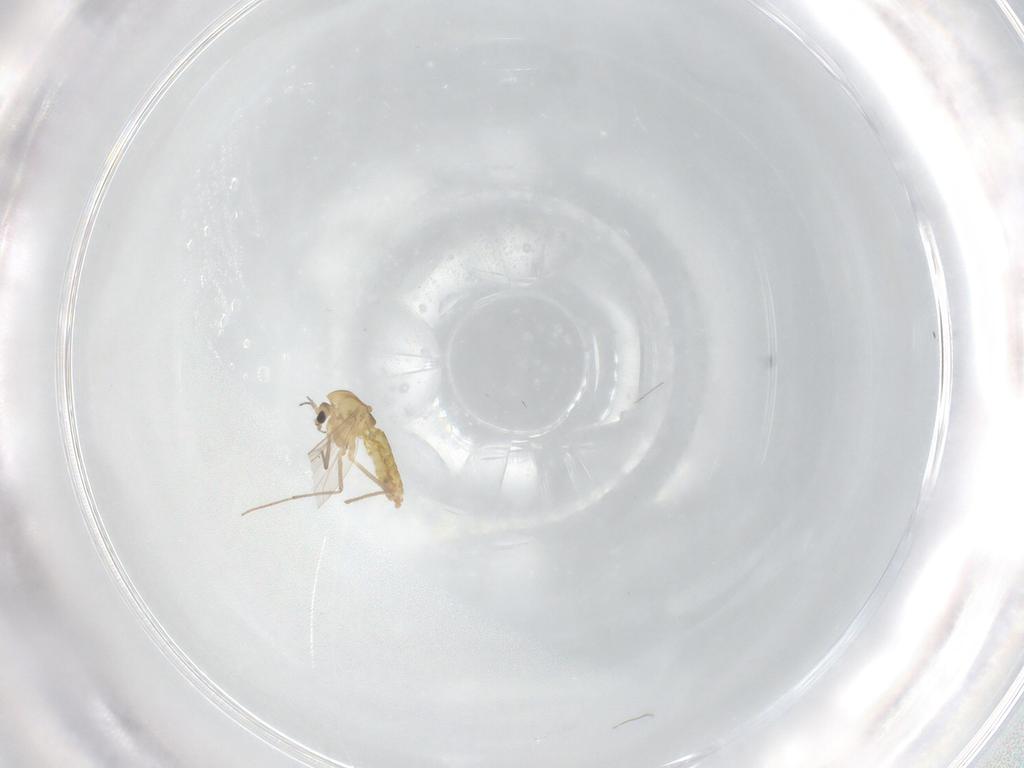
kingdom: Animalia
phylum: Arthropoda
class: Insecta
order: Diptera
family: Chironomidae
